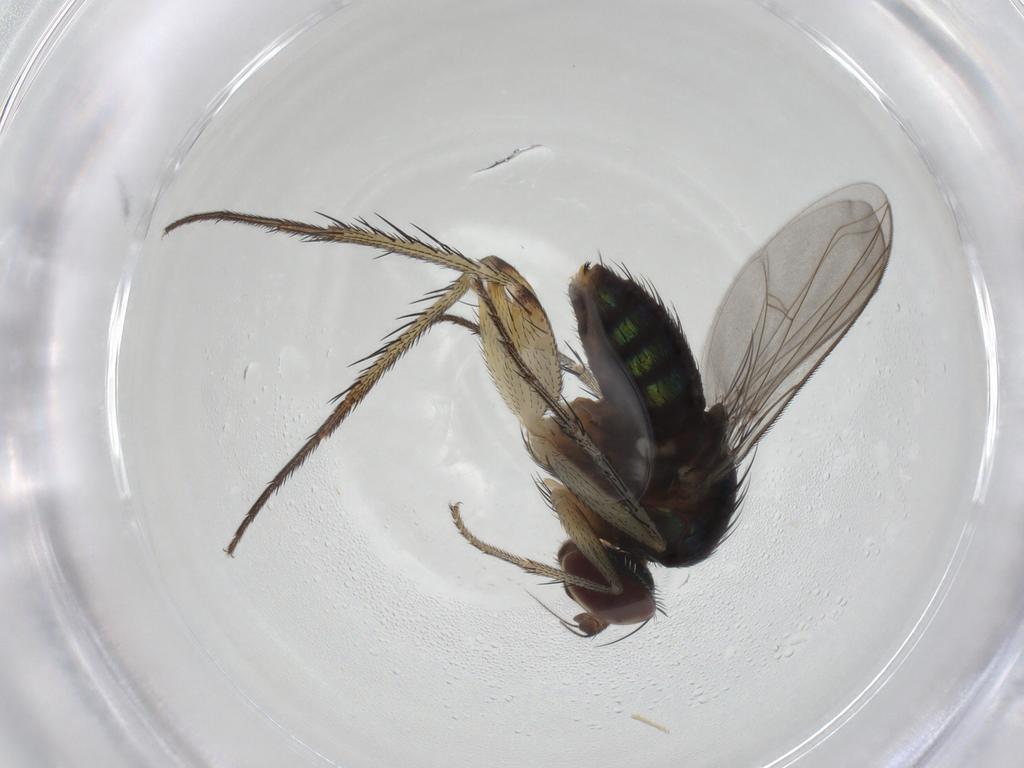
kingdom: Animalia
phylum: Arthropoda
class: Insecta
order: Diptera
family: Dolichopodidae
